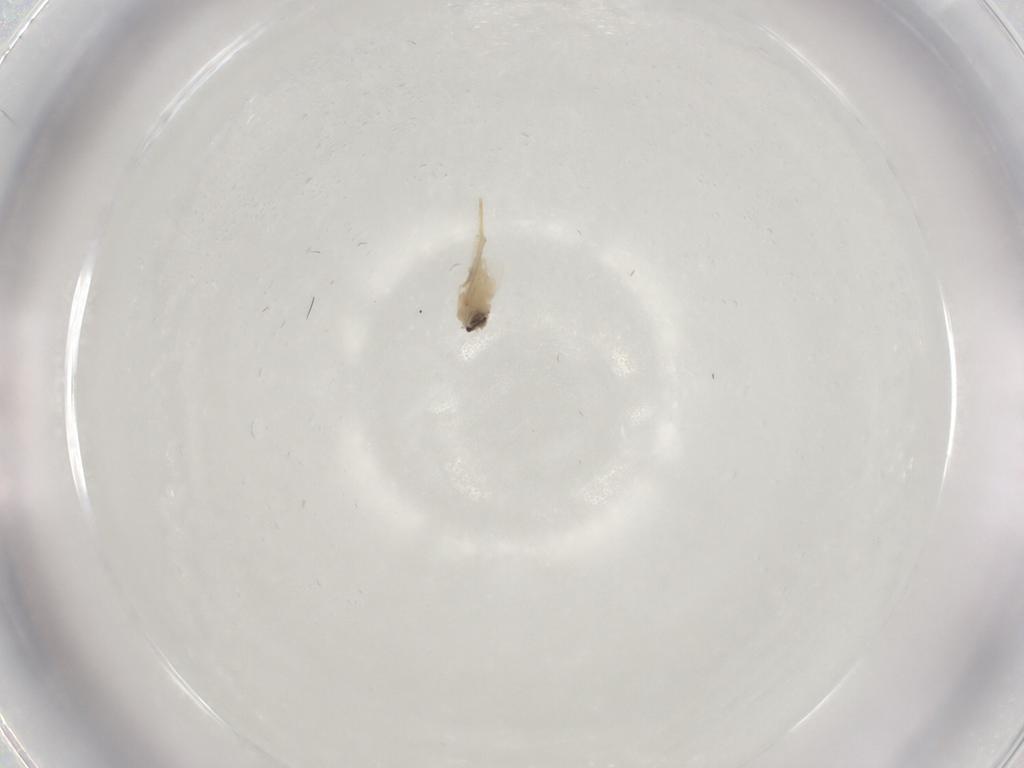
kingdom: Animalia
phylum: Arthropoda
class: Insecta
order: Diptera
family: Cecidomyiidae
